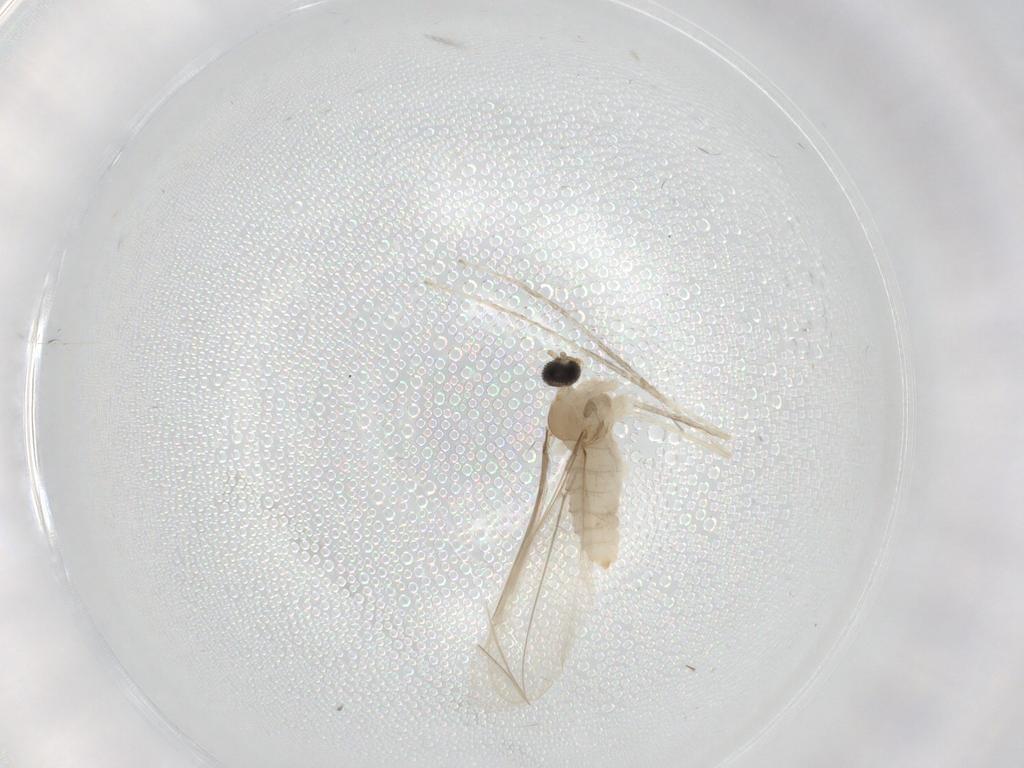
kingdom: Animalia
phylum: Arthropoda
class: Insecta
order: Diptera
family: Cecidomyiidae
